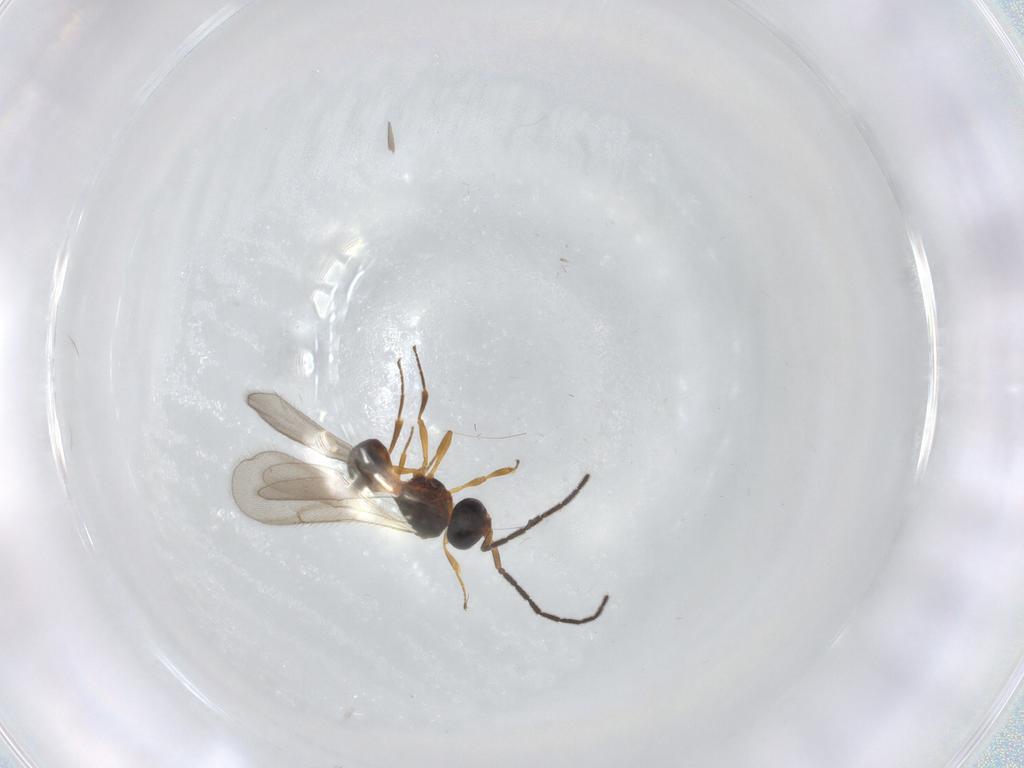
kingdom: Animalia
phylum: Arthropoda
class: Insecta
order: Hymenoptera
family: Scelionidae
